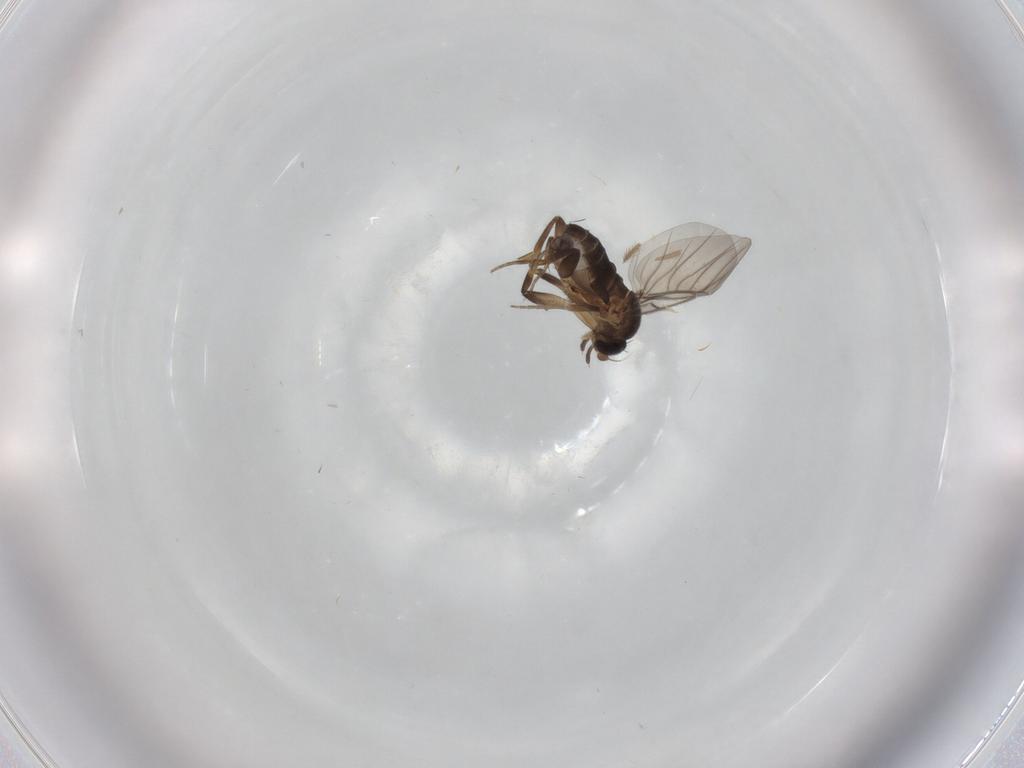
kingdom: Animalia
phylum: Arthropoda
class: Insecta
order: Diptera
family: Phoridae
